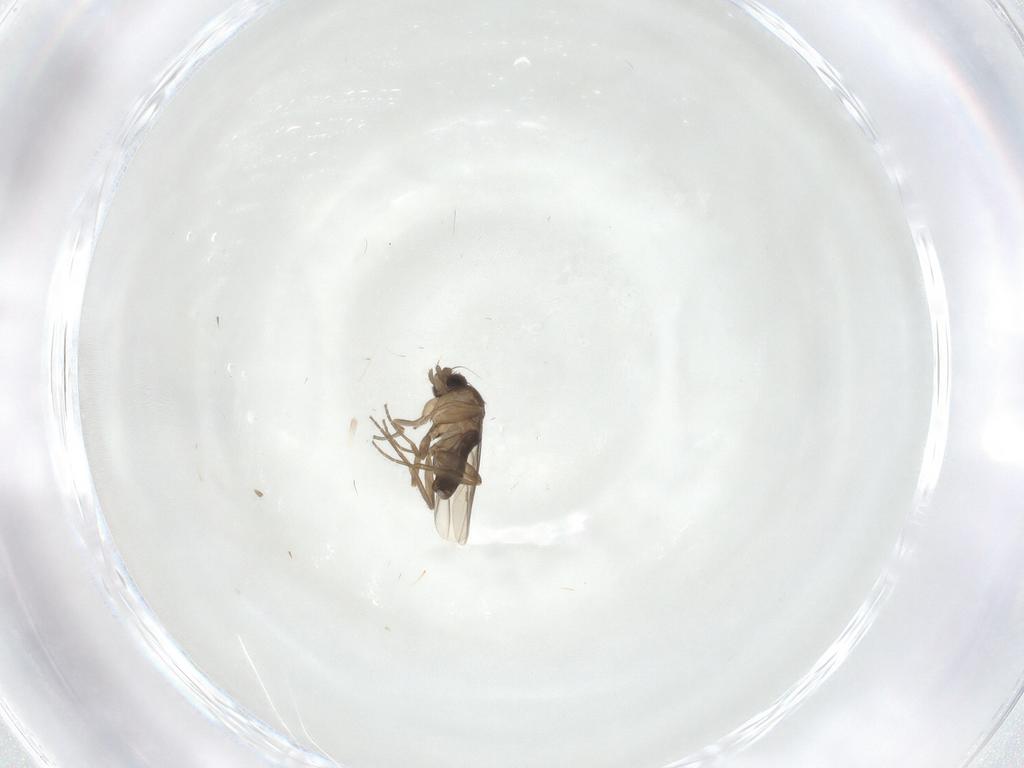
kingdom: Animalia
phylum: Arthropoda
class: Insecta
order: Diptera
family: Phoridae
